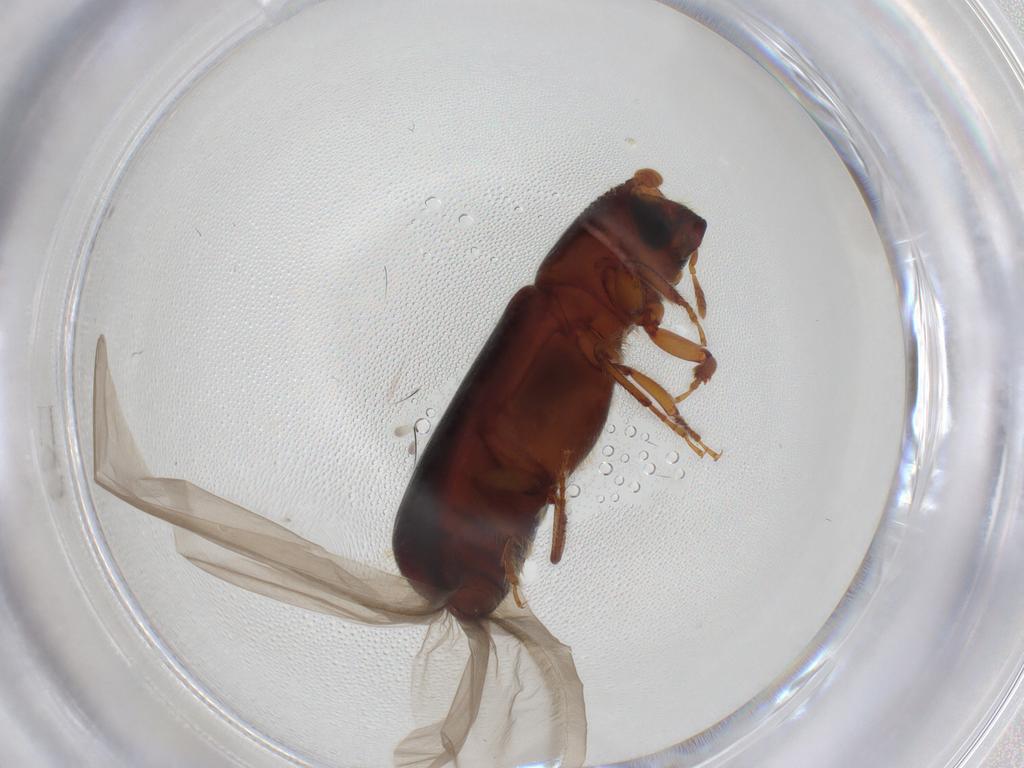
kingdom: Animalia
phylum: Arthropoda
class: Insecta
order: Coleoptera
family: Curculionidae
